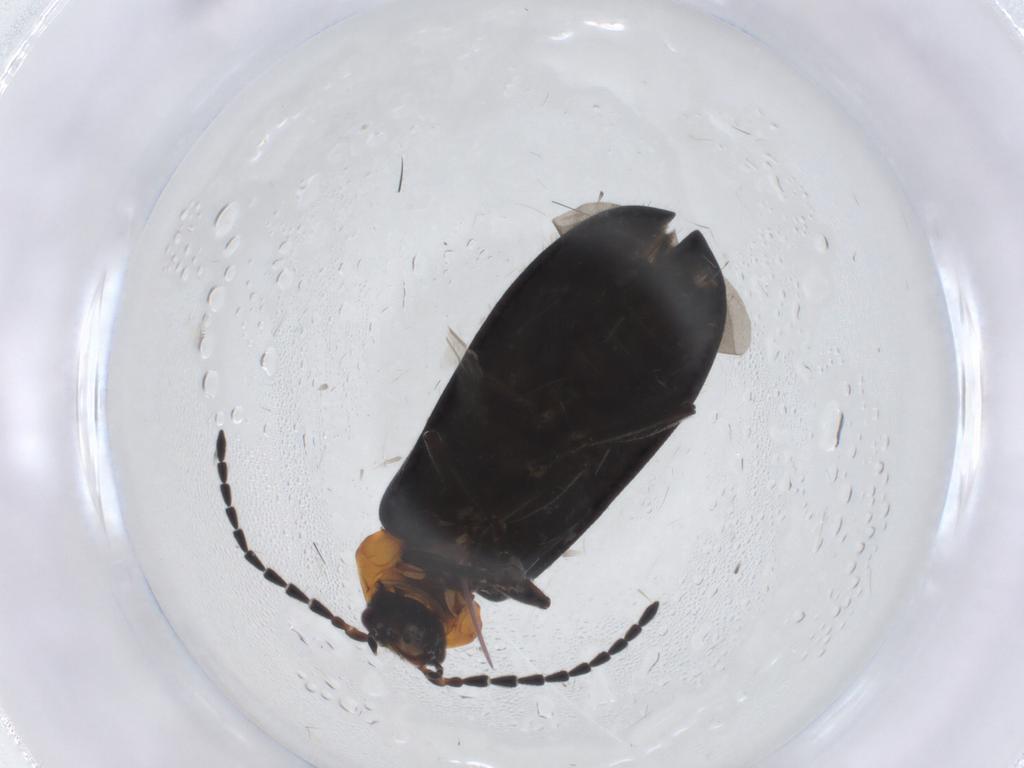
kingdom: Animalia
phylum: Arthropoda
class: Insecta
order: Coleoptera
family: Cantharidae
